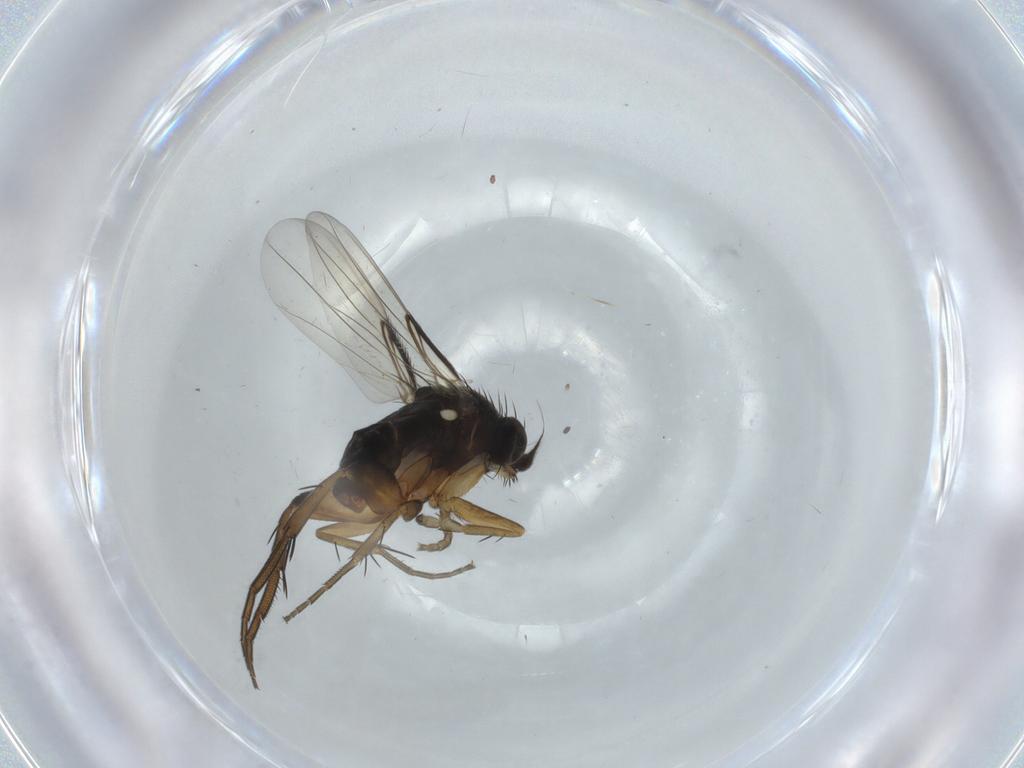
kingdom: Animalia
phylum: Arthropoda
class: Insecta
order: Diptera
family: Phoridae
